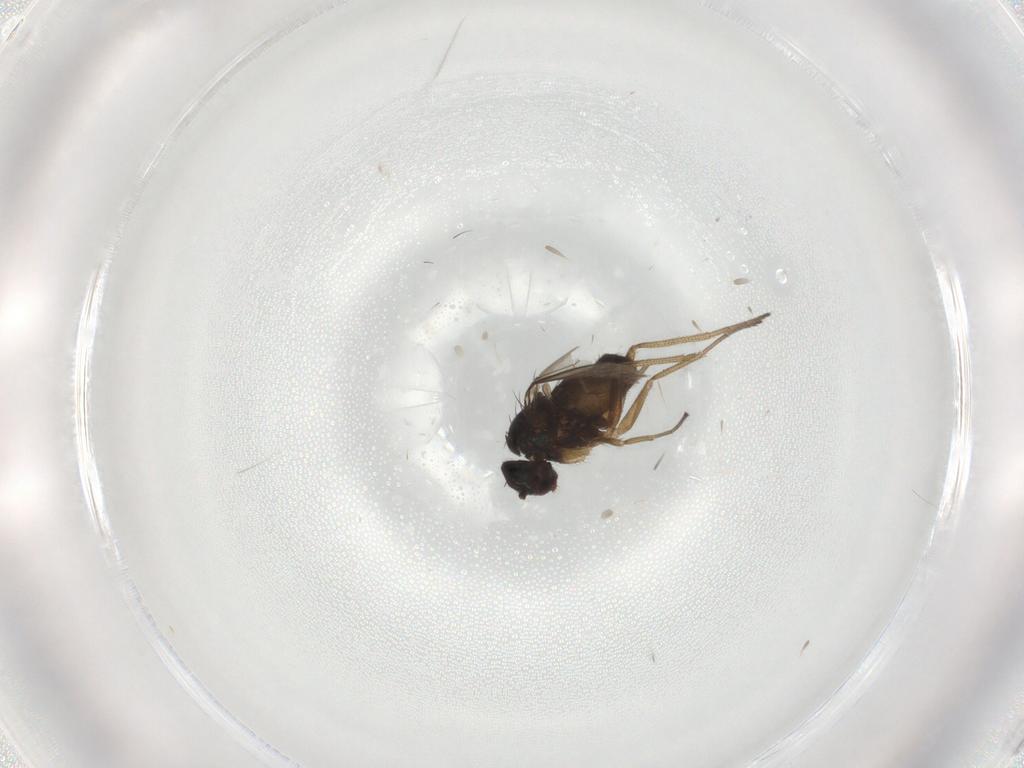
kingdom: Animalia
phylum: Arthropoda
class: Insecta
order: Diptera
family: Dolichopodidae
